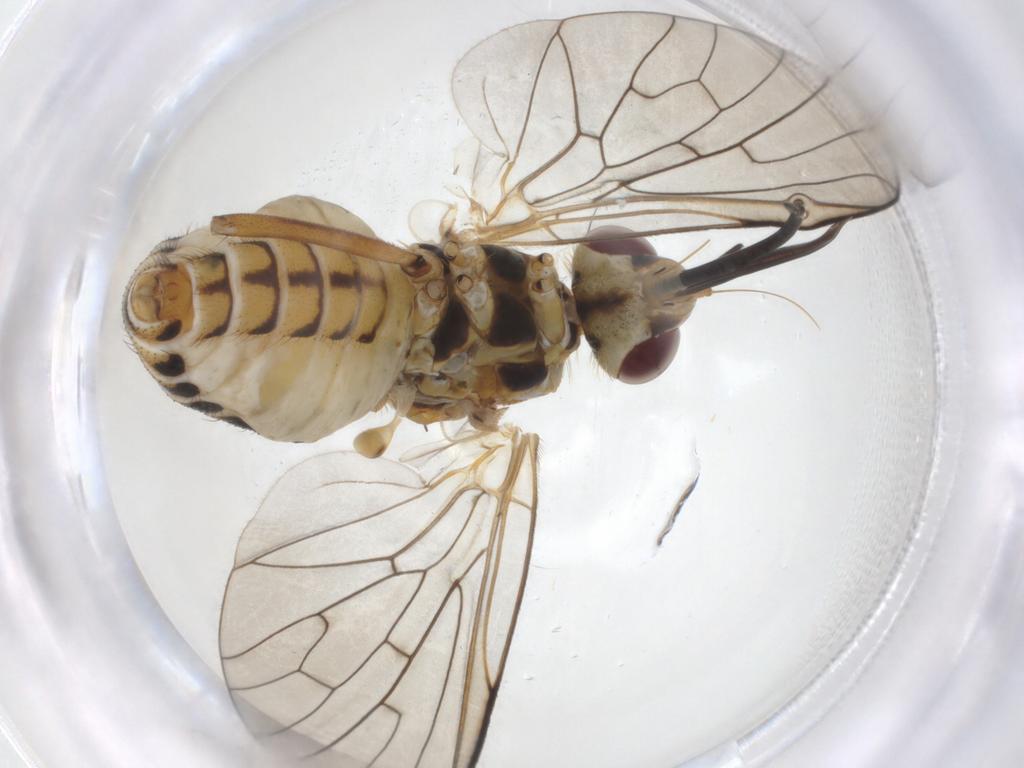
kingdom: Animalia
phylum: Arthropoda
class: Insecta
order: Diptera
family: Bombyliidae
